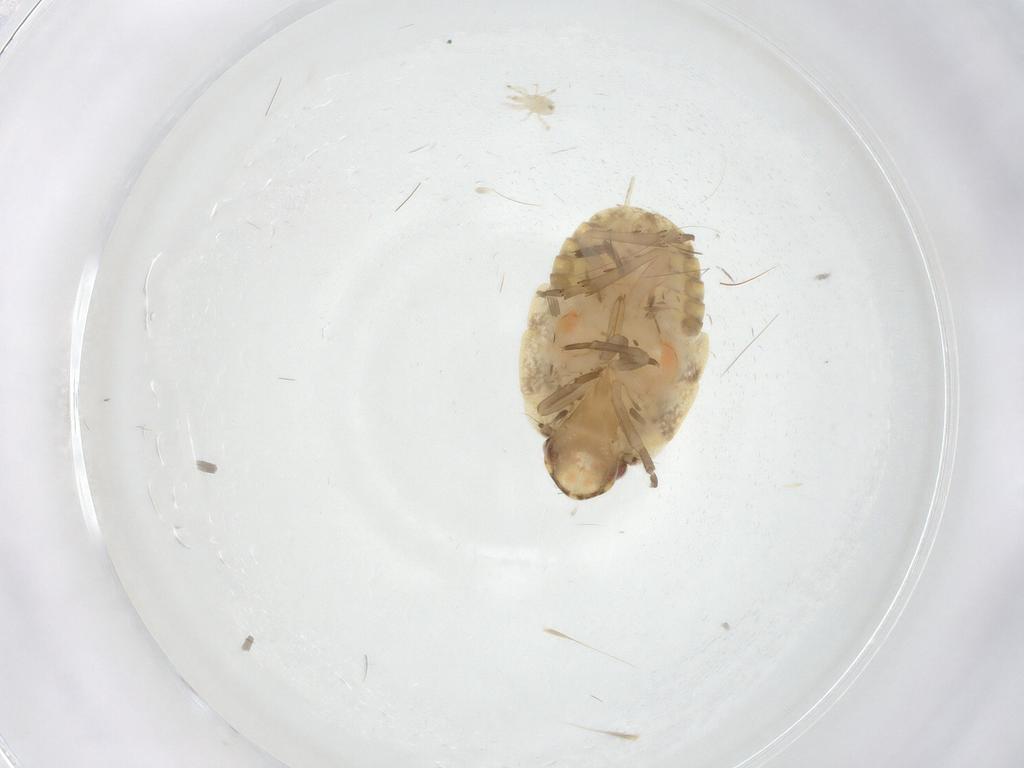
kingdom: Animalia
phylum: Arthropoda
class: Insecta
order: Hemiptera
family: Flatidae
